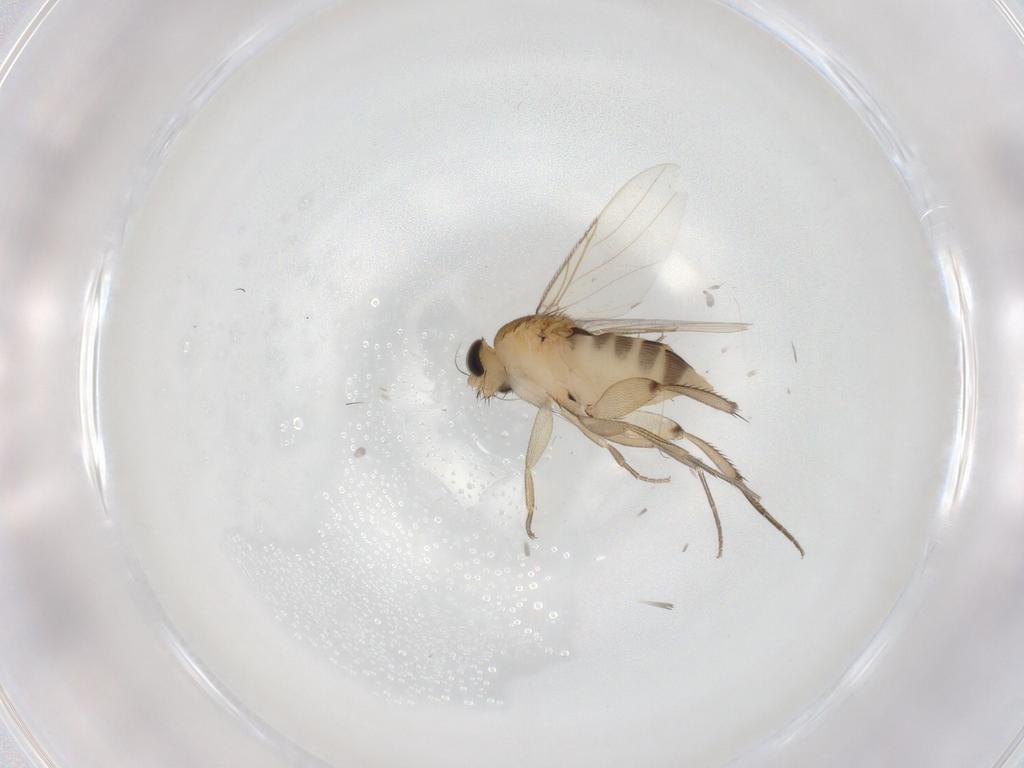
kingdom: Animalia
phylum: Arthropoda
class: Insecta
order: Diptera
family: Phoridae
